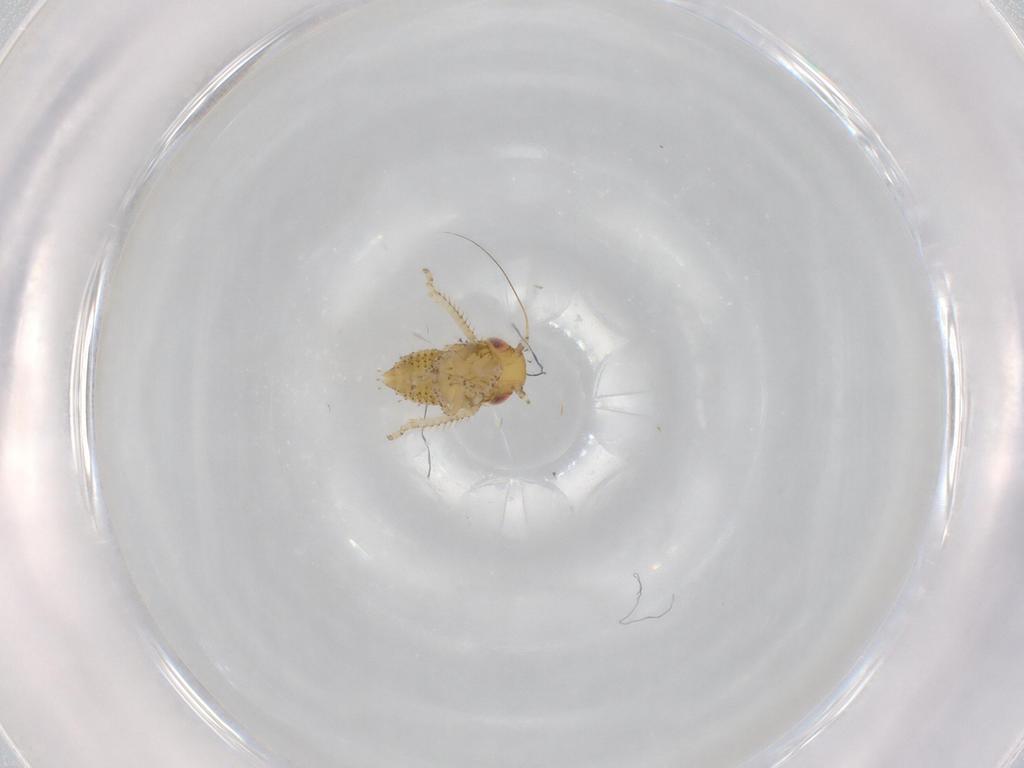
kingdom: Animalia
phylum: Arthropoda
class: Insecta
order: Hemiptera
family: Cicadellidae
